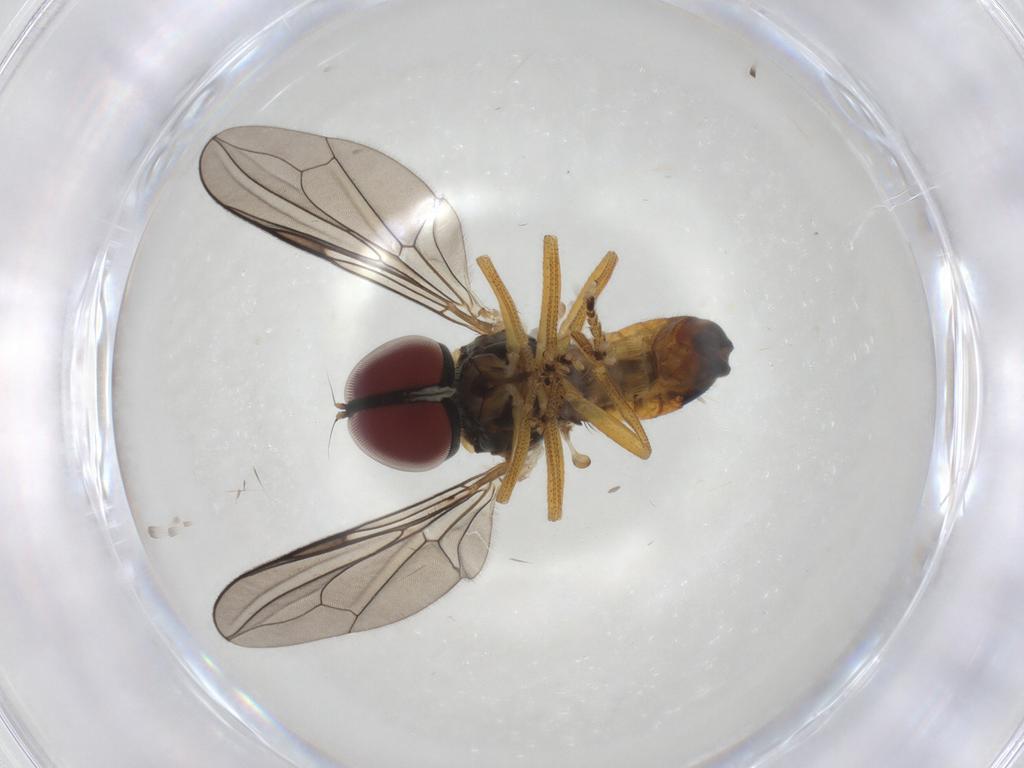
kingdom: Animalia
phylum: Arthropoda
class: Insecta
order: Diptera
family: Pipunculidae
